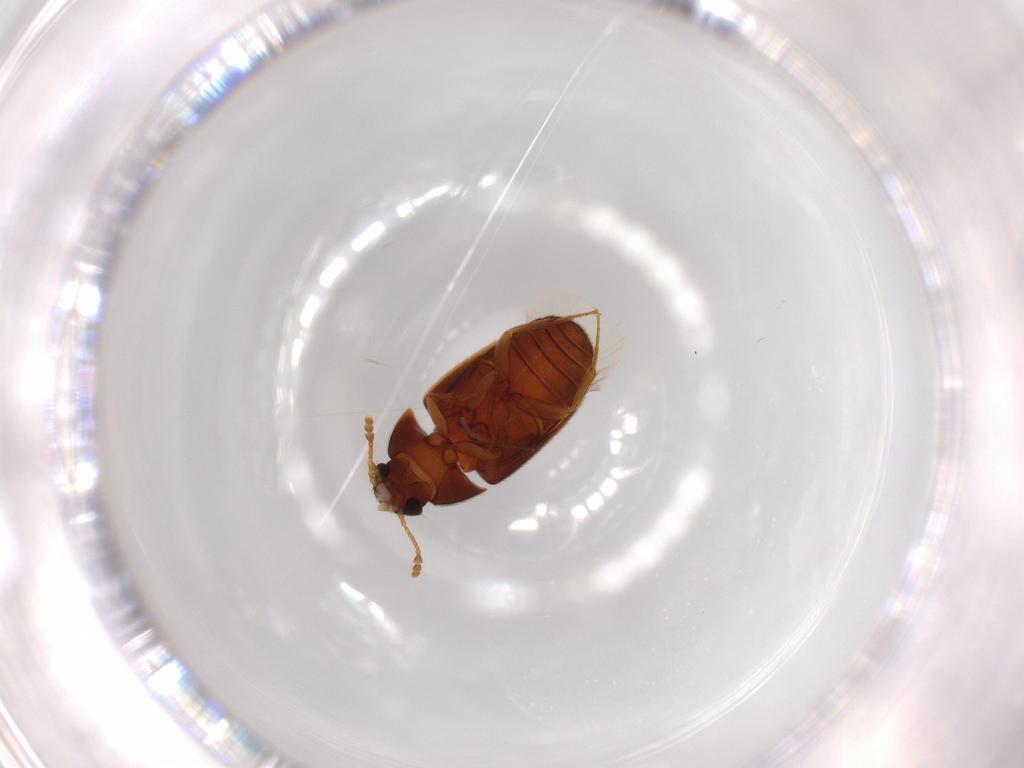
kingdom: Animalia
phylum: Arthropoda
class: Insecta
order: Coleoptera
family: Mycetophagidae
